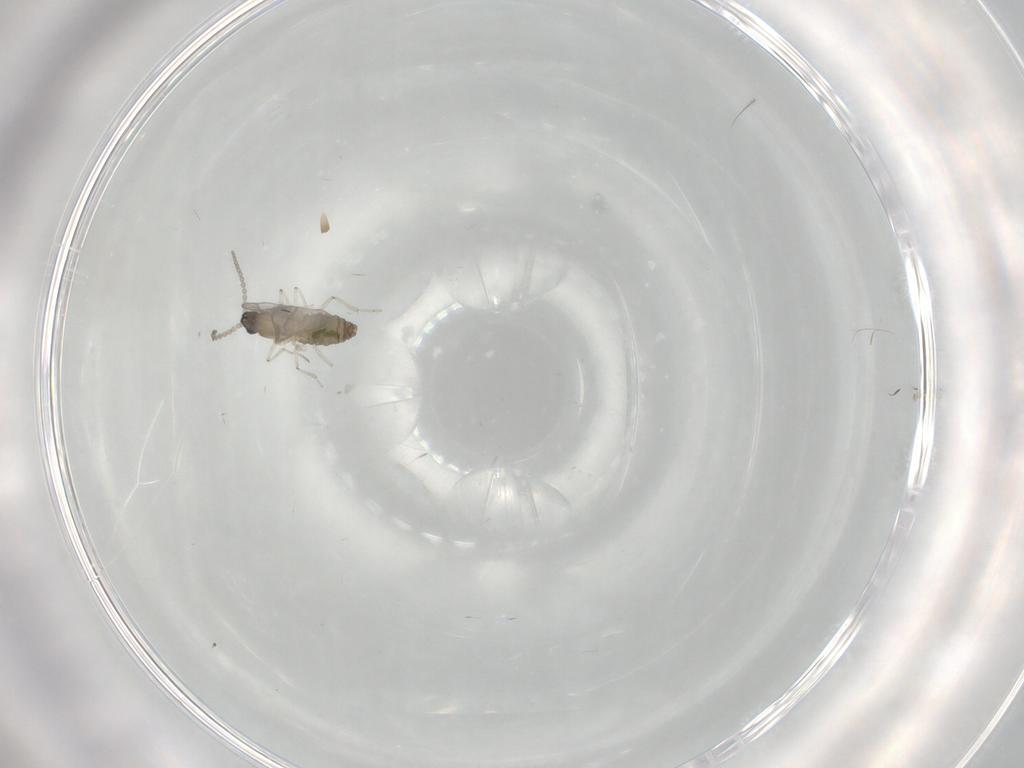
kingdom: Animalia
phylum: Arthropoda
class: Insecta
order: Diptera
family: Cecidomyiidae
